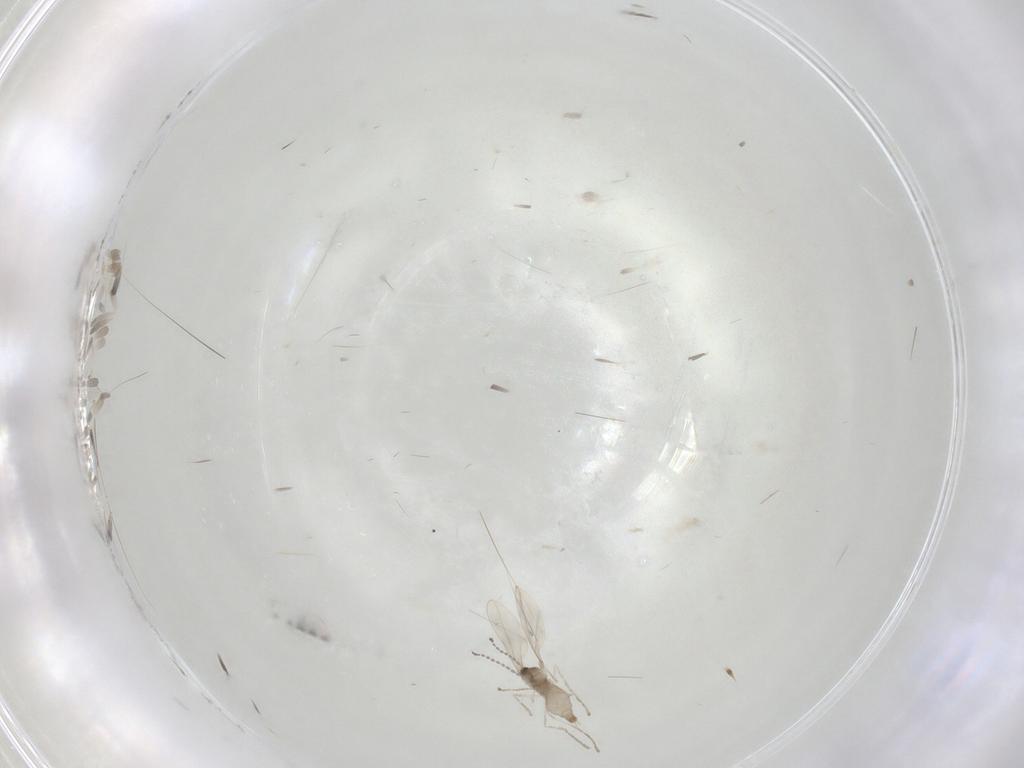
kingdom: Animalia
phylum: Arthropoda
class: Insecta
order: Diptera
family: Cecidomyiidae
